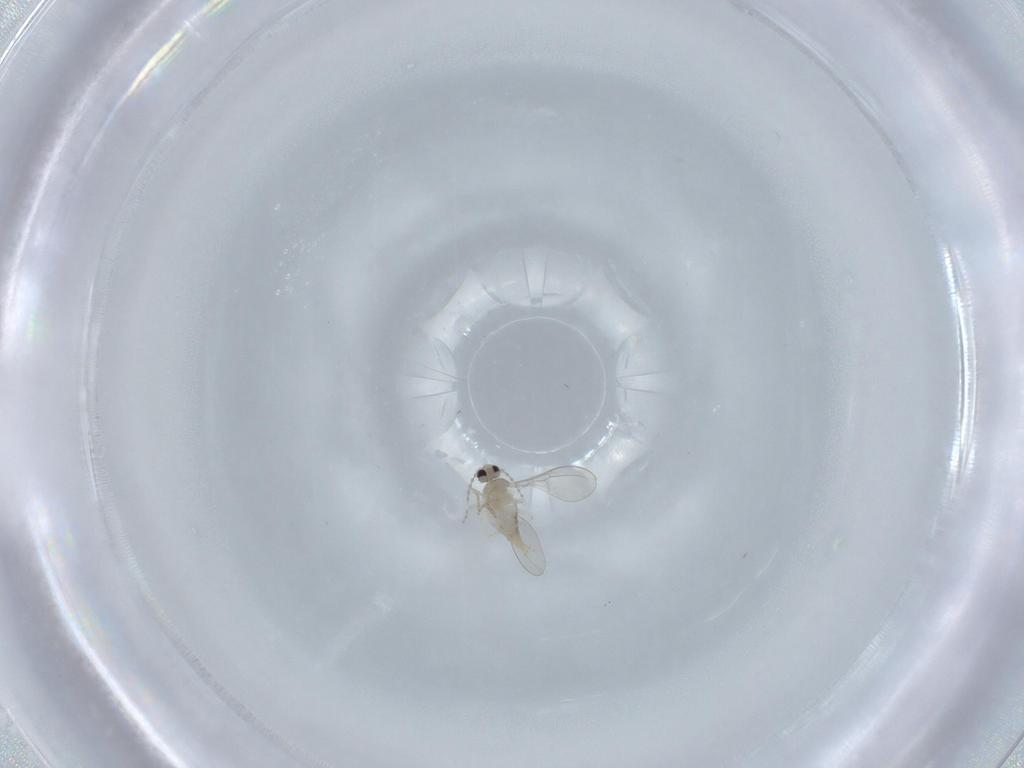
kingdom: Animalia
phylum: Arthropoda
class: Insecta
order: Diptera
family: Cecidomyiidae
